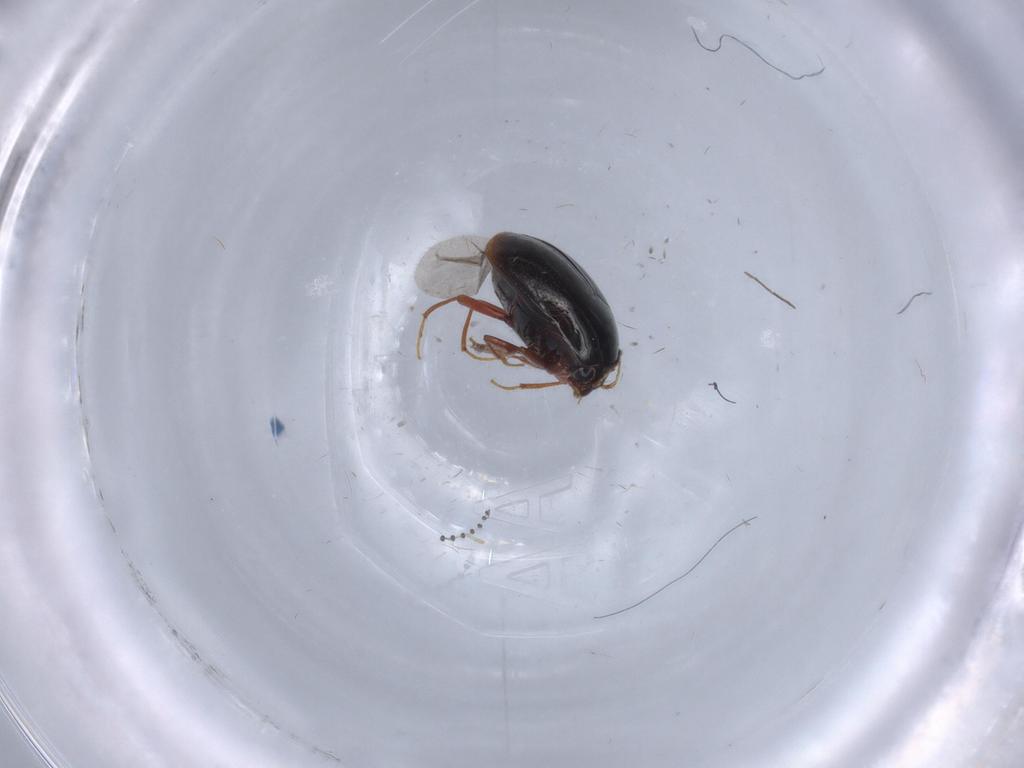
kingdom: Animalia
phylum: Arthropoda
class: Insecta
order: Coleoptera
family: Staphylinidae
